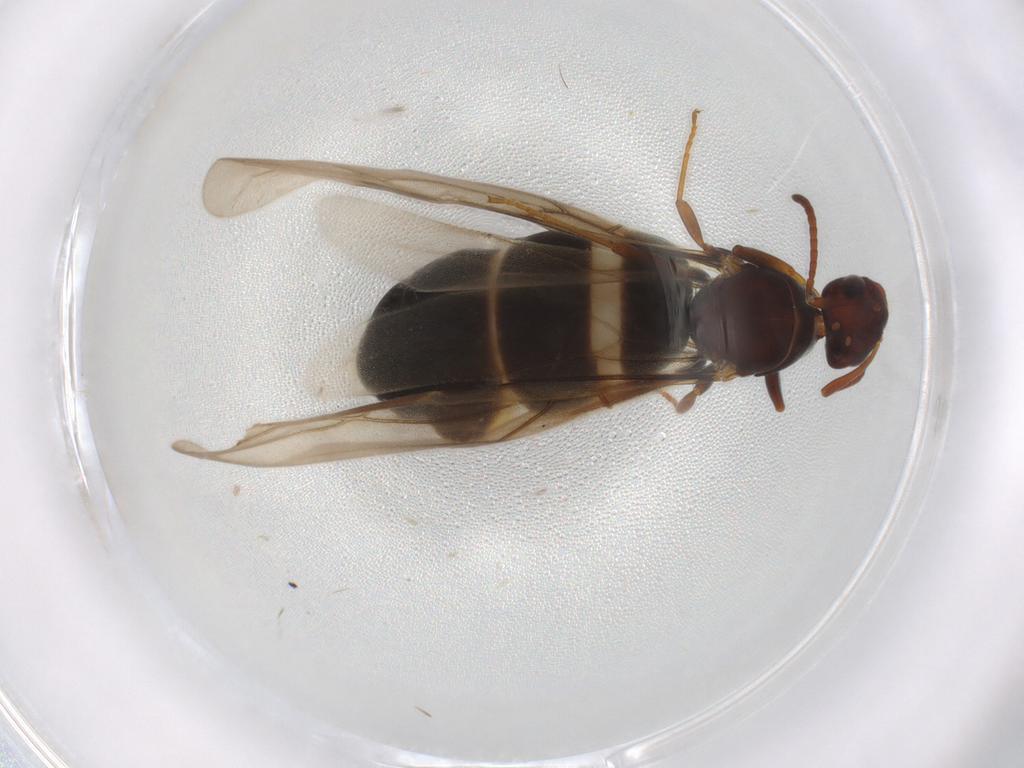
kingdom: Animalia
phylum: Arthropoda
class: Insecta
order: Hymenoptera
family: Formicidae
